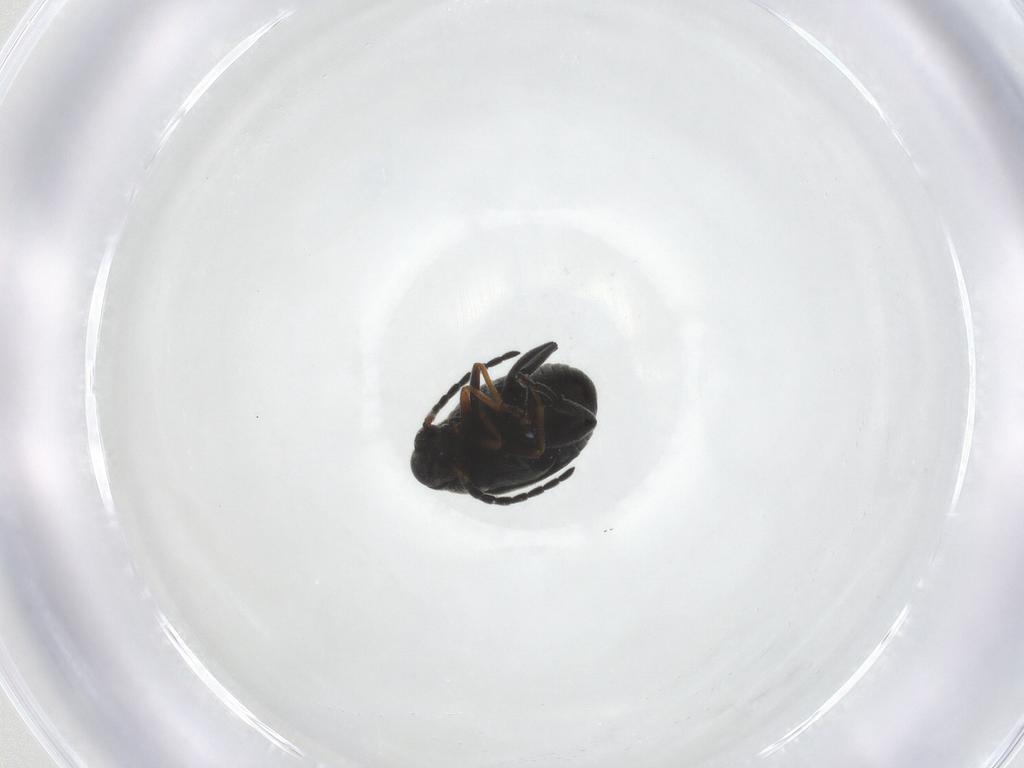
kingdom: Animalia
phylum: Arthropoda
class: Insecta
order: Coleoptera
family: Chrysomelidae
